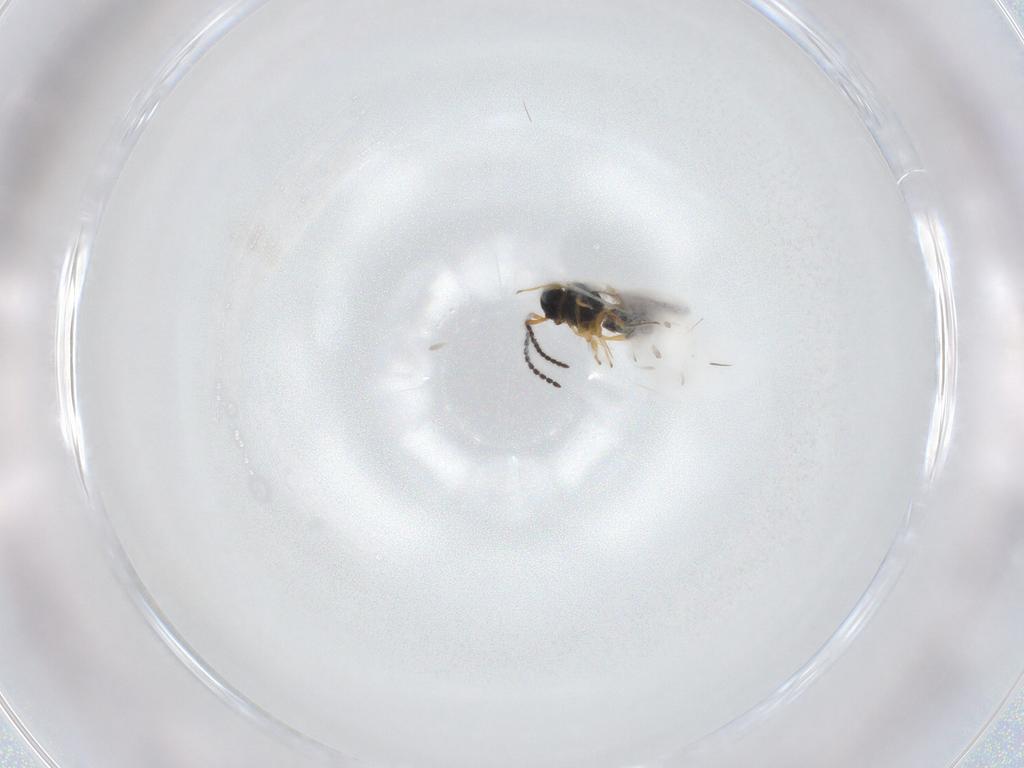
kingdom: Animalia
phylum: Arthropoda
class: Insecta
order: Hymenoptera
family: Scelionidae
